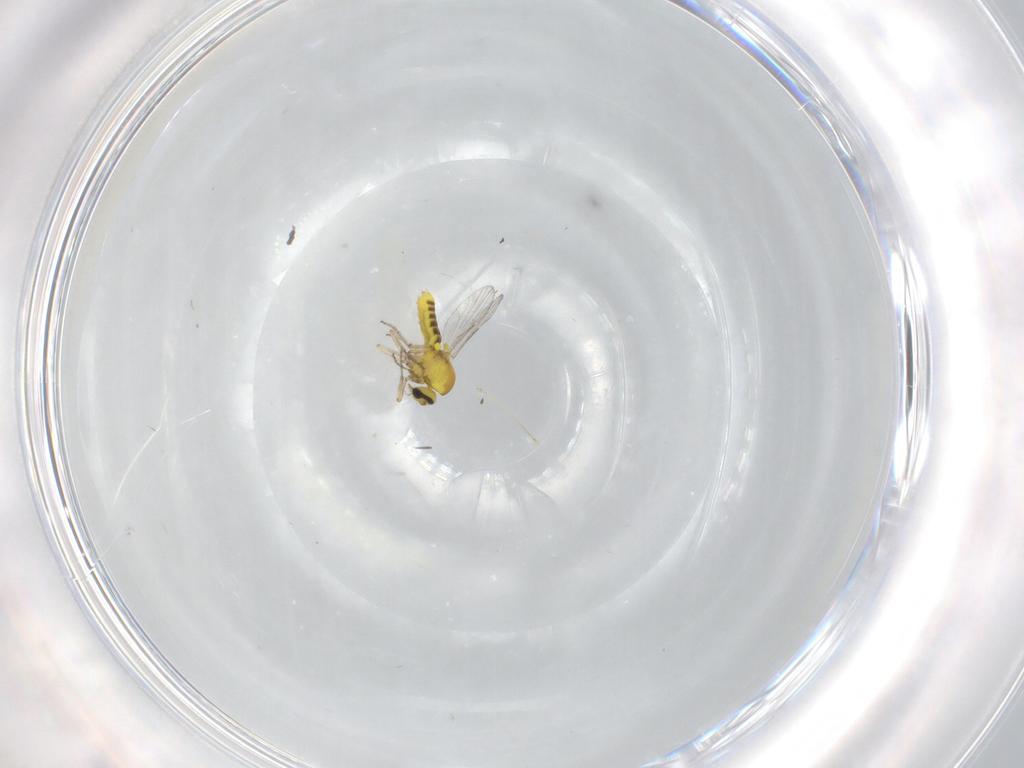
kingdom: Animalia
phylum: Arthropoda
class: Insecta
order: Diptera
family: Ceratopogonidae
